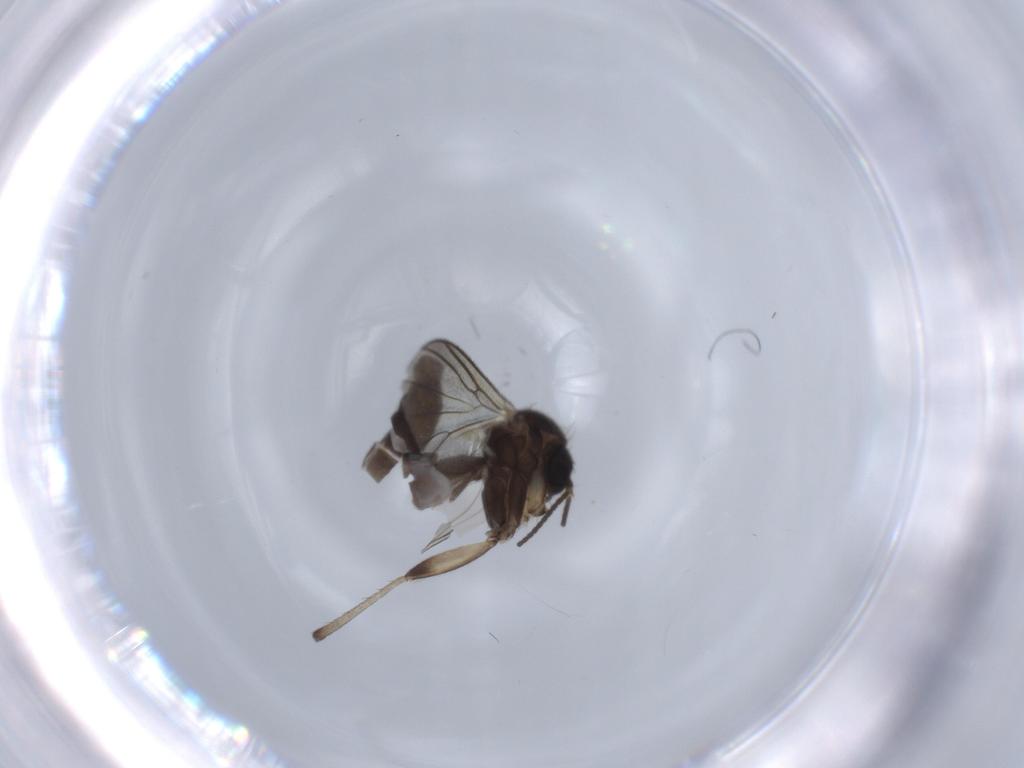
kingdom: Animalia
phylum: Arthropoda
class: Insecta
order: Diptera
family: Mycetophilidae
